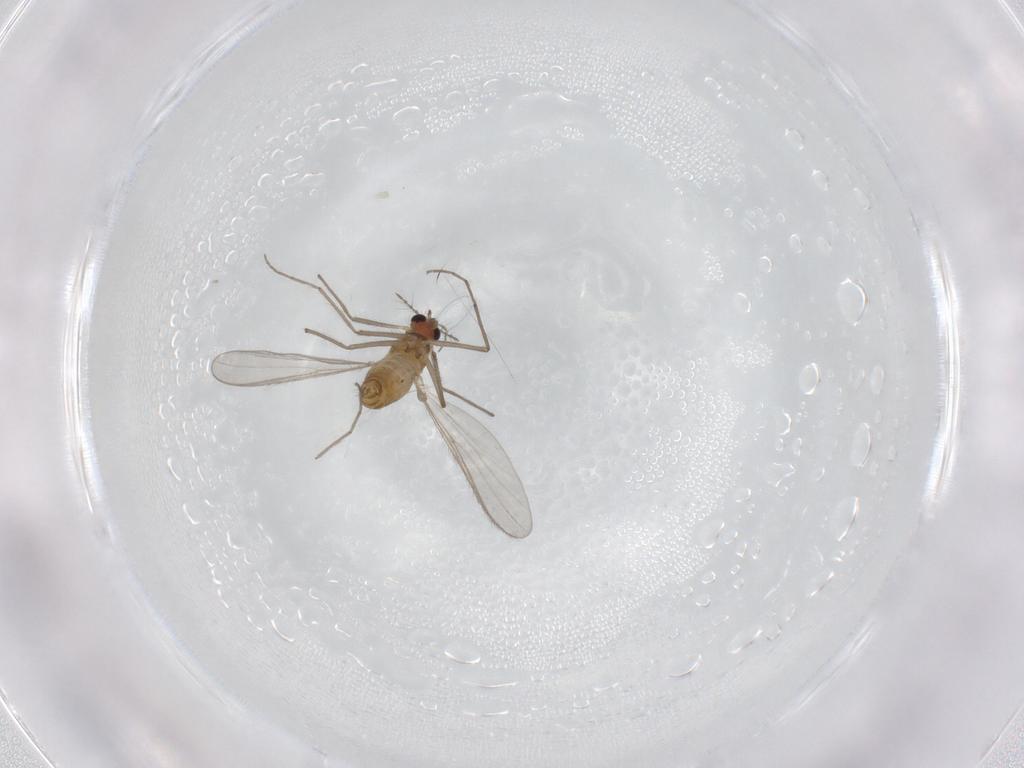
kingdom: Animalia
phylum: Arthropoda
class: Insecta
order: Diptera
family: Chironomidae
